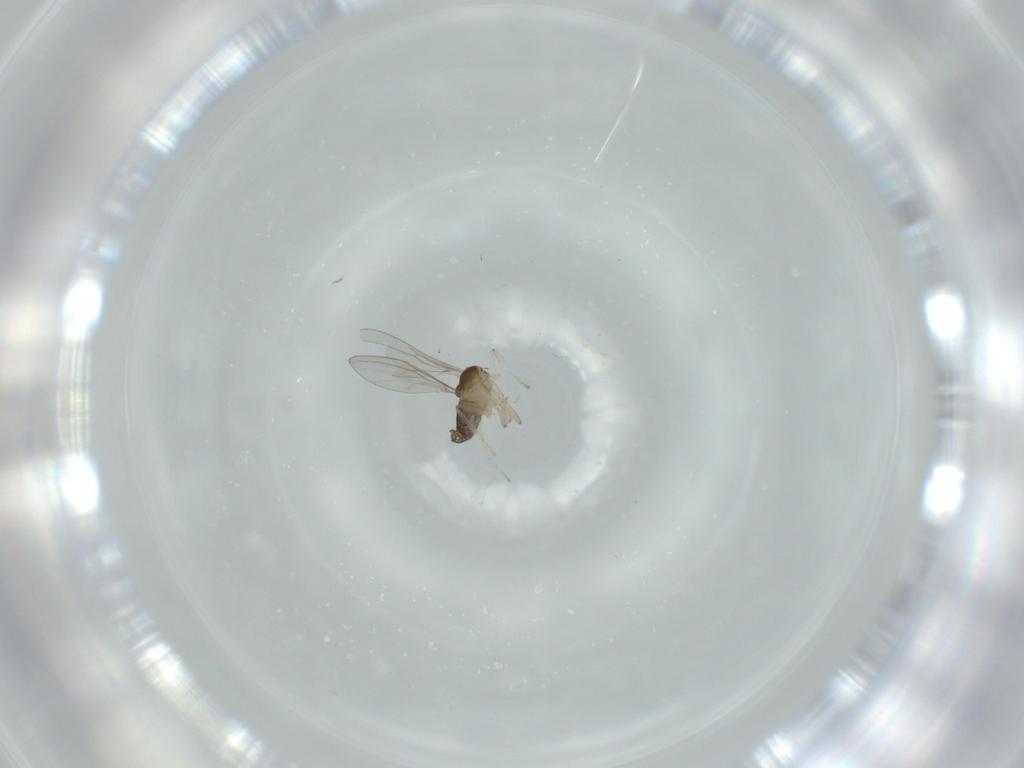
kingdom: Animalia
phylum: Arthropoda
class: Insecta
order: Diptera
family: Cecidomyiidae
